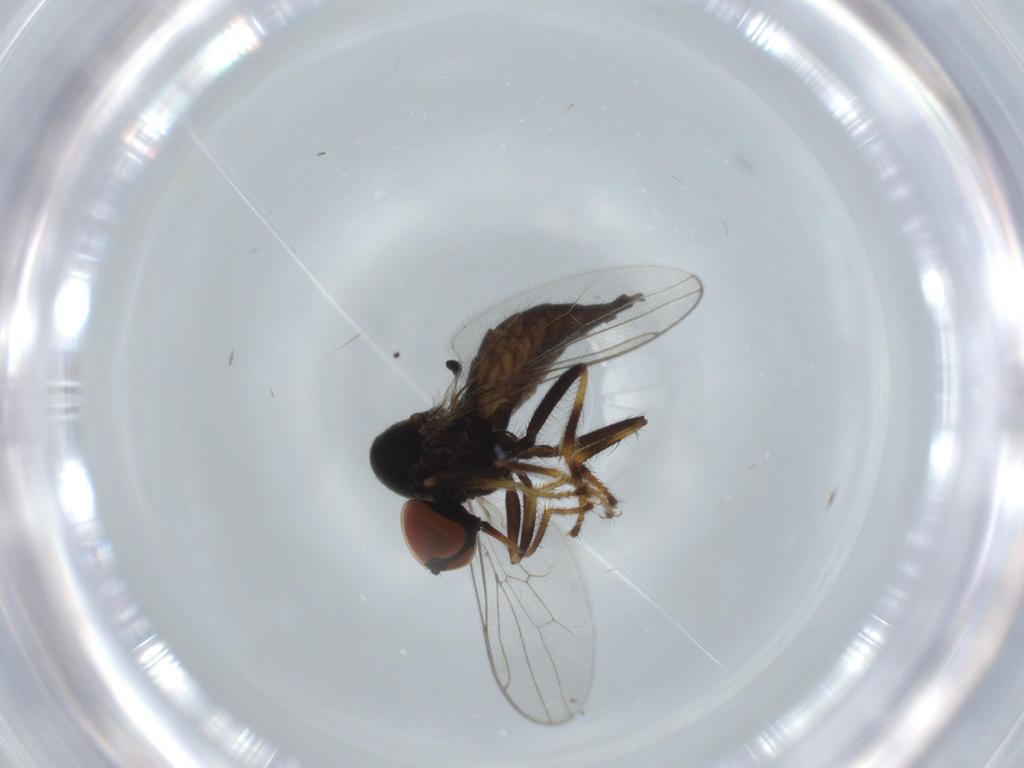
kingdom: Animalia
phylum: Arthropoda
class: Insecta
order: Diptera
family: Hybotidae
